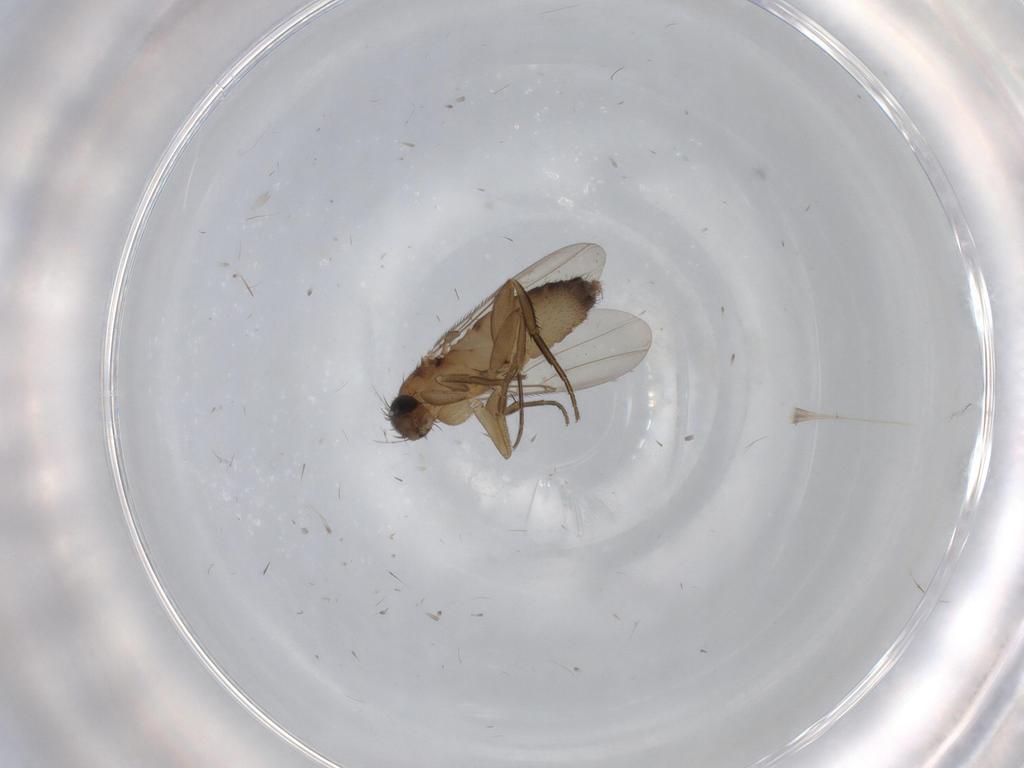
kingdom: Animalia
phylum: Arthropoda
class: Insecta
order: Diptera
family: Phoridae
